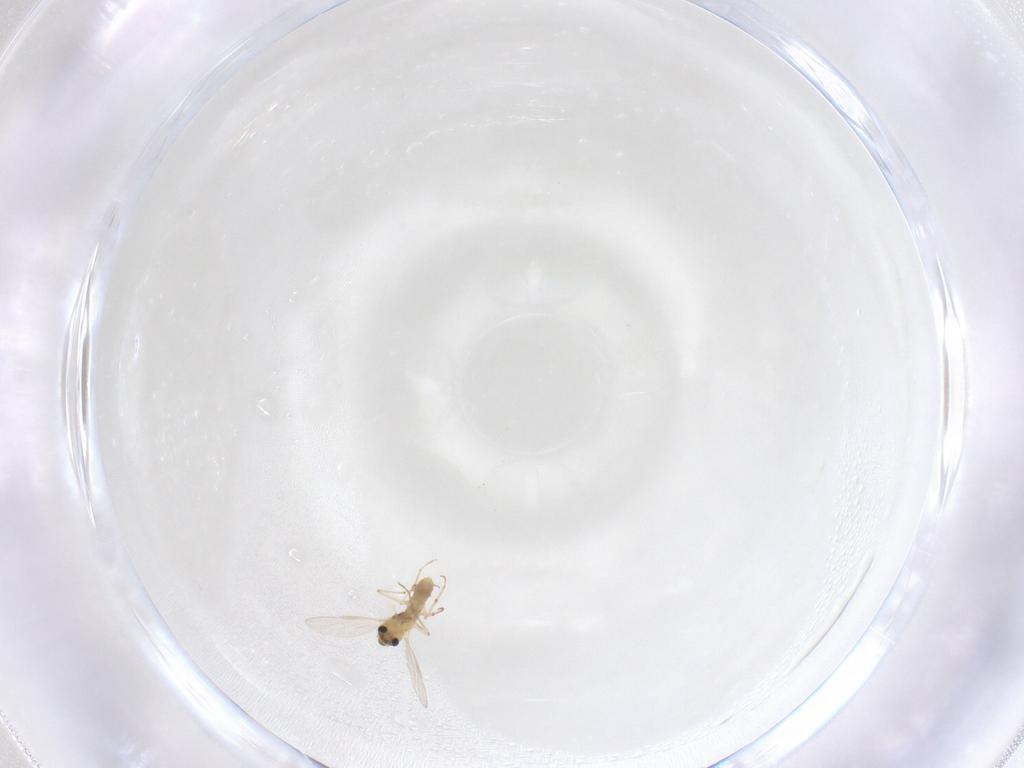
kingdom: Animalia
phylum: Arthropoda
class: Insecta
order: Diptera
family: Chironomidae
